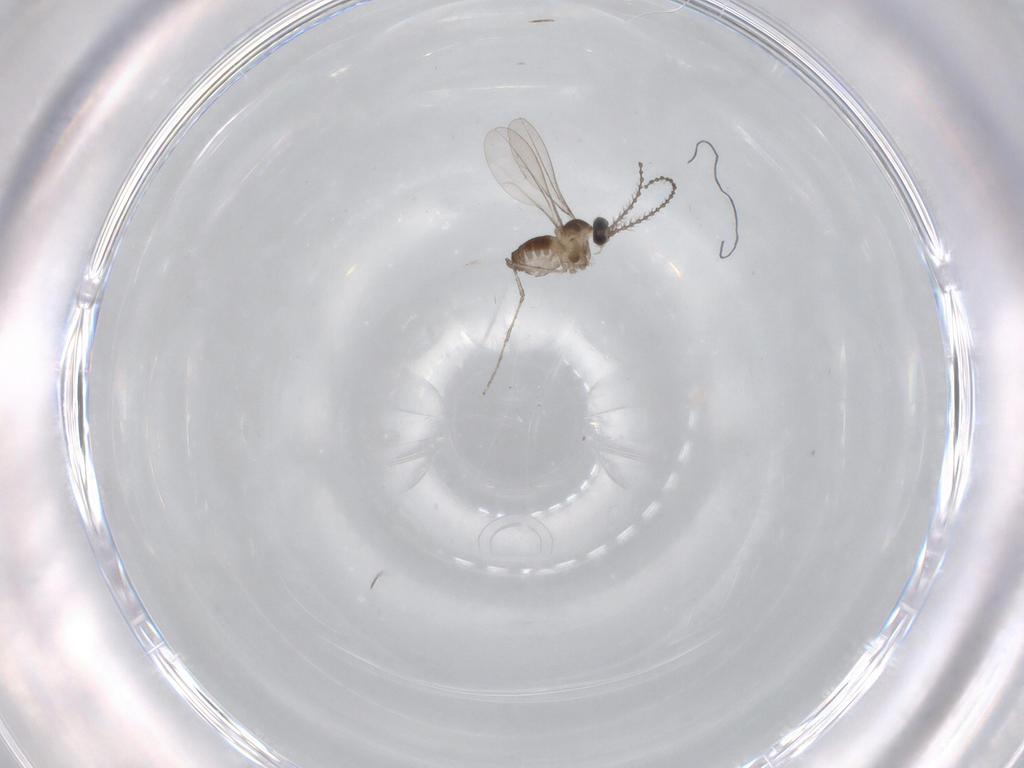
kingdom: Animalia
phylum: Arthropoda
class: Insecta
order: Diptera
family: Cecidomyiidae
